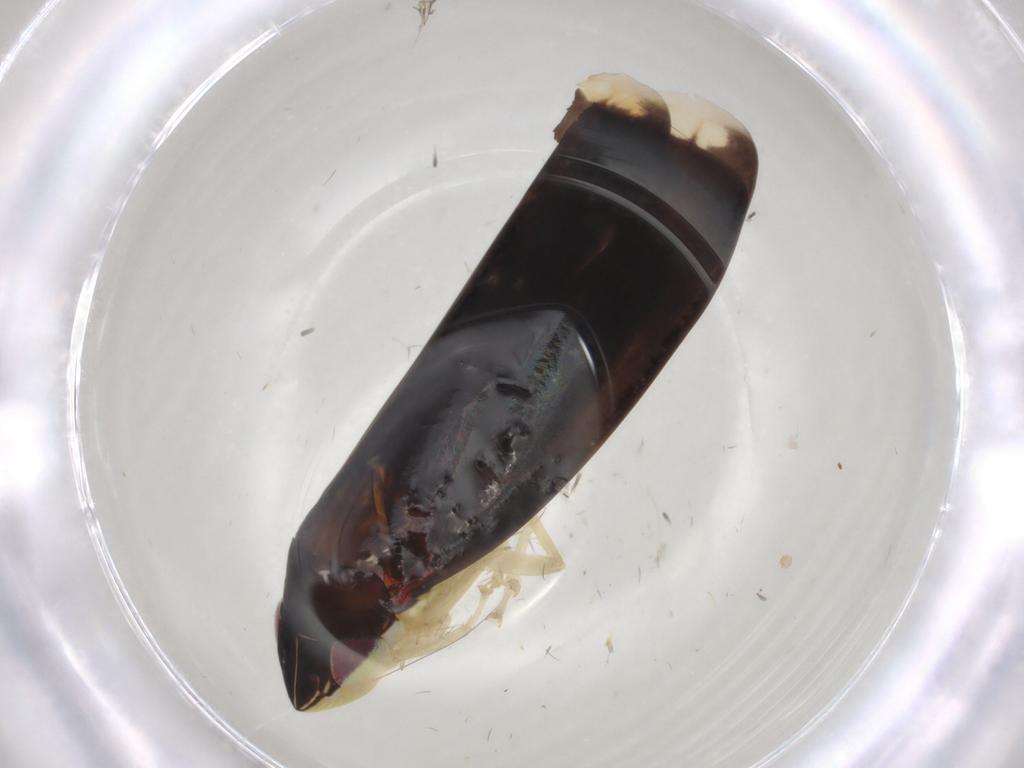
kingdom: Animalia
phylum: Arthropoda
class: Insecta
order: Hemiptera
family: Cicadellidae
